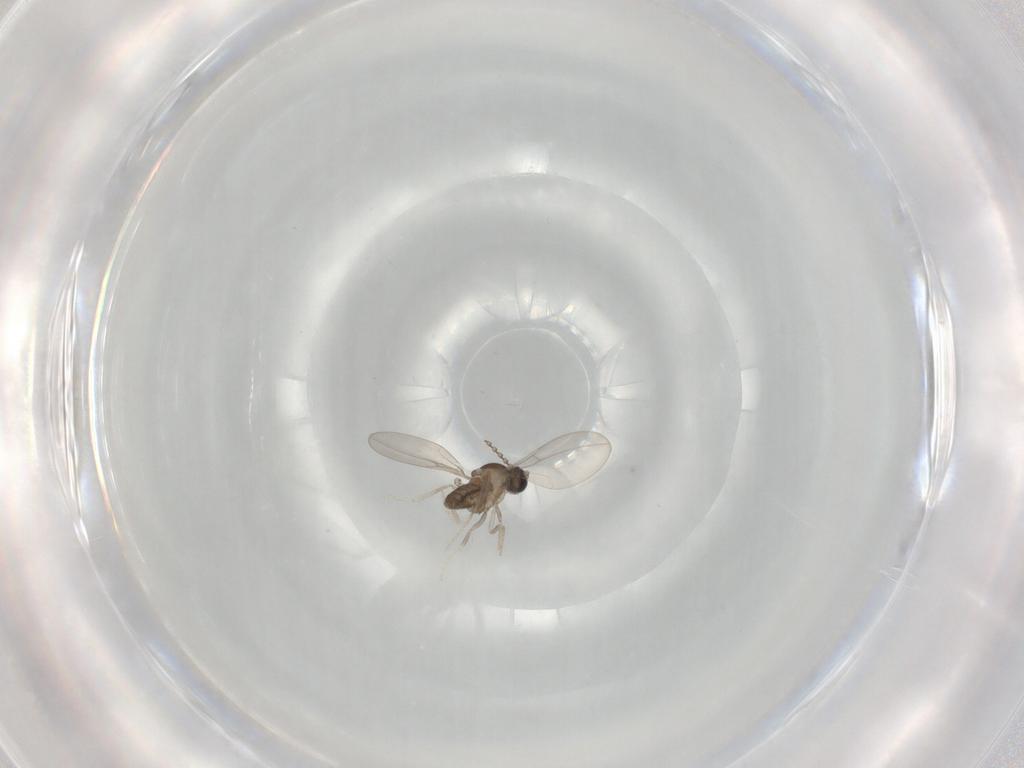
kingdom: Animalia
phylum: Arthropoda
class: Insecta
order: Diptera
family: Cecidomyiidae
